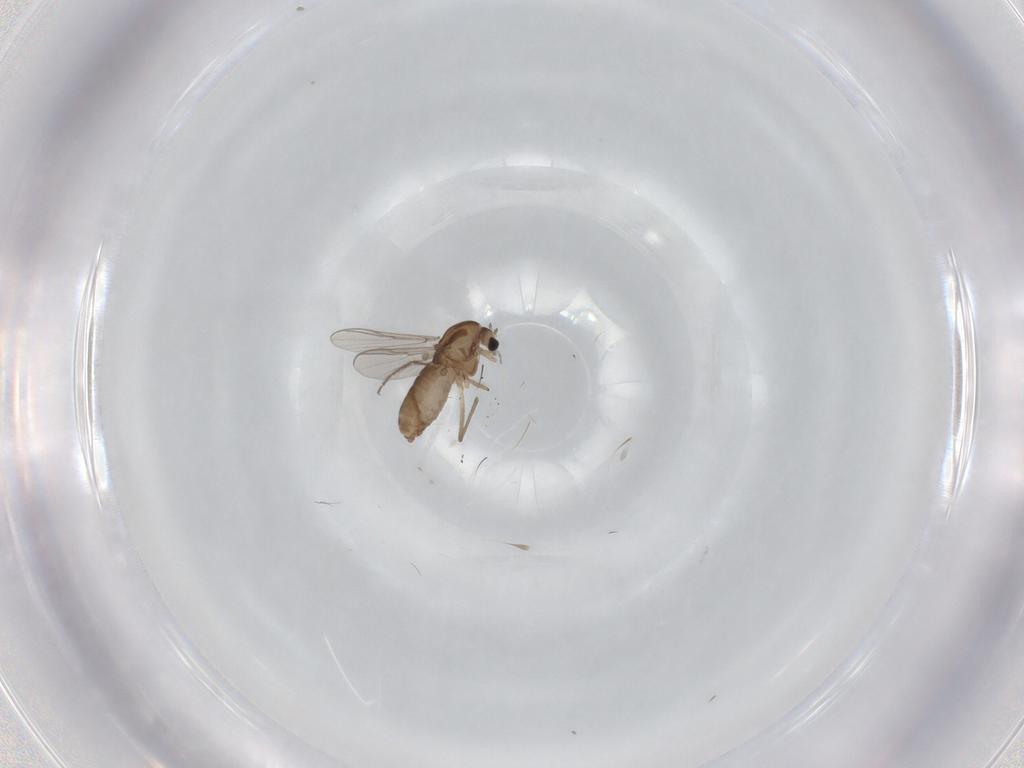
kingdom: Animalia
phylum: Arthropoda
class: Insecta
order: Diptera
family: Chironomidae
